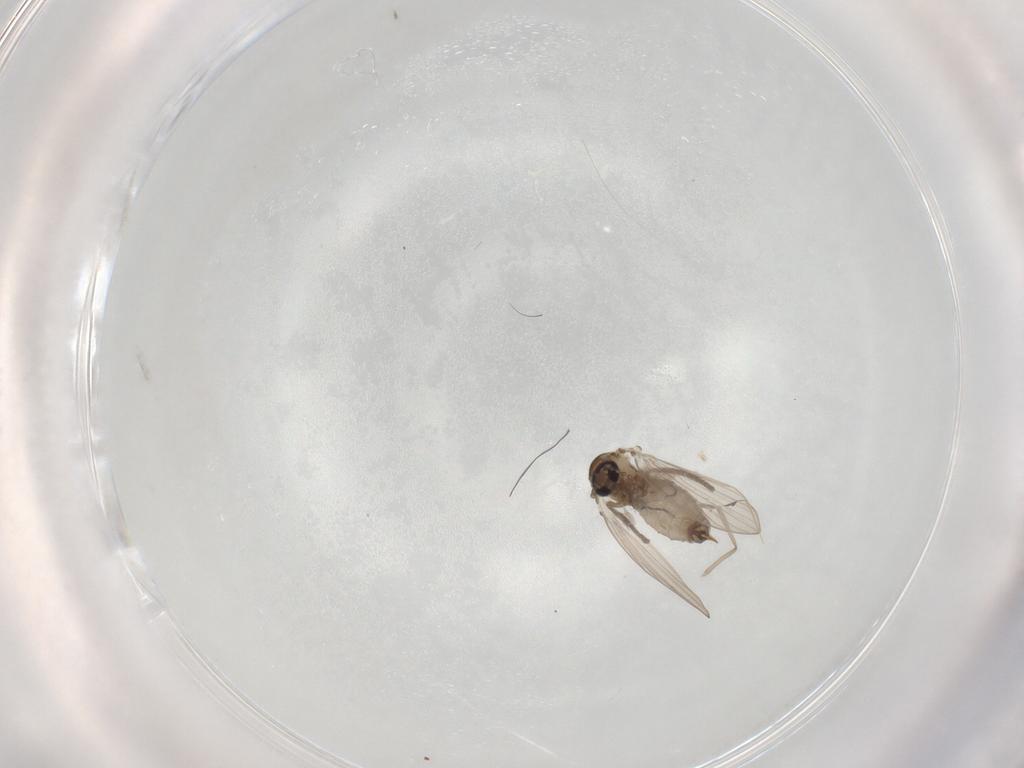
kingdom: Animalia
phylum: Arthropoda
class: Insecta
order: Diptera
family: Psychodidae
